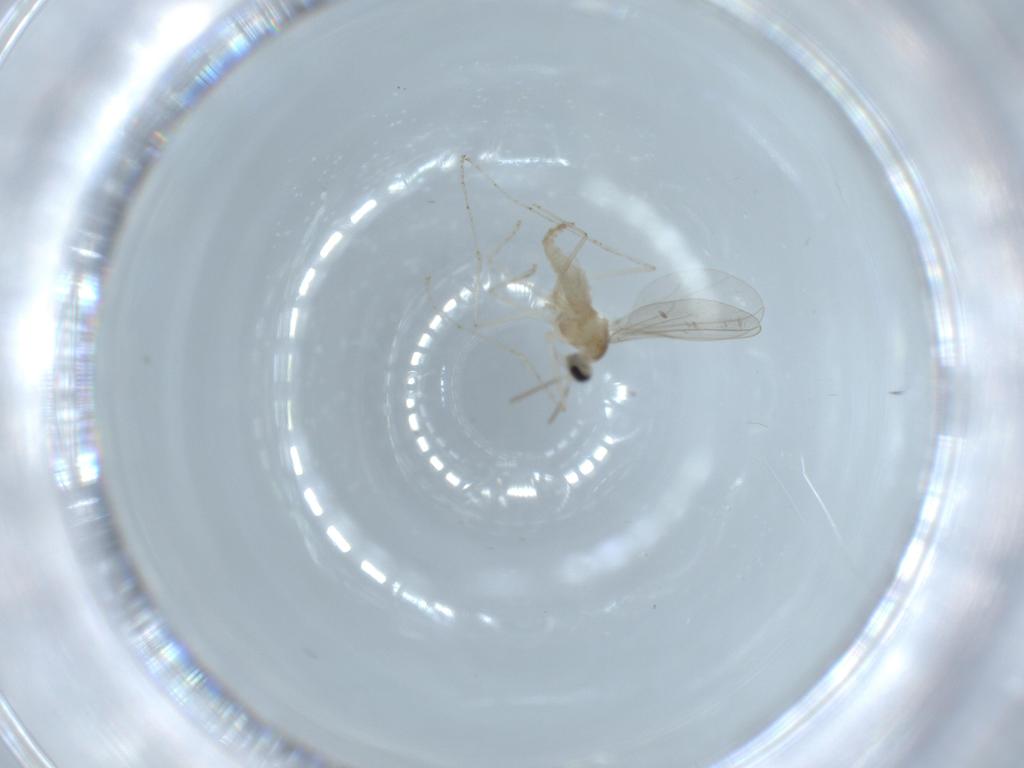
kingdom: Animalia
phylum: Arthropoda
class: Insecta
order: Diptera
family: Cecidomyiidae
